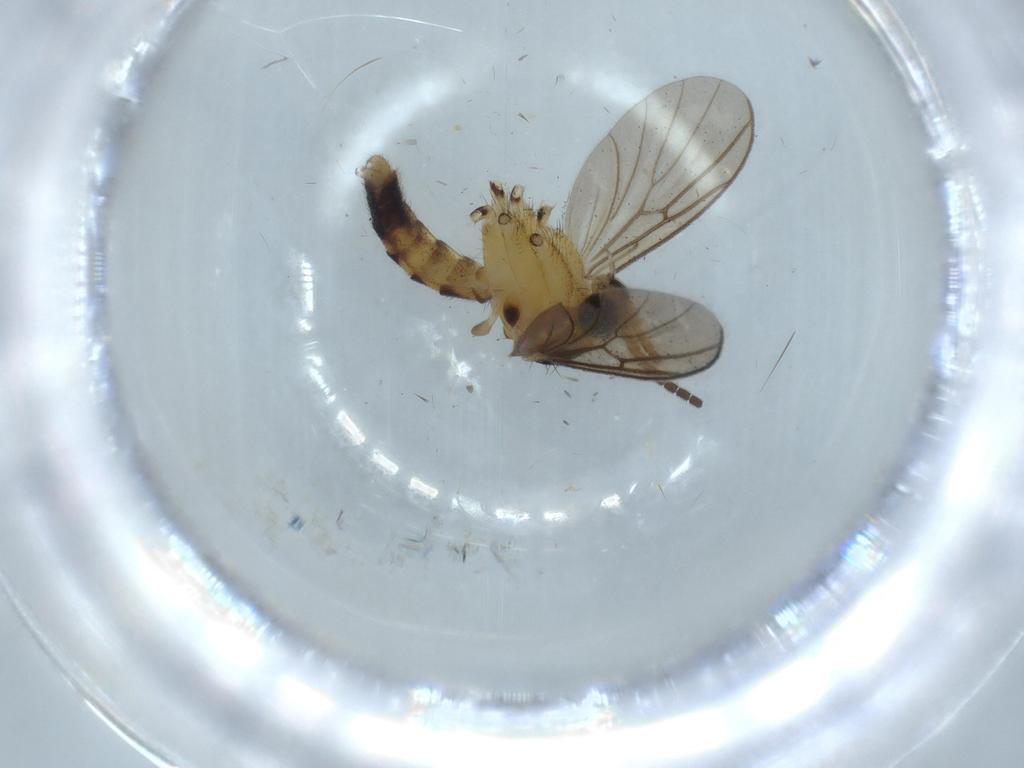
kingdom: Animalia
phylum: Arthropoda
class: Insecta
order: Diptera
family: Mycetophilidae
